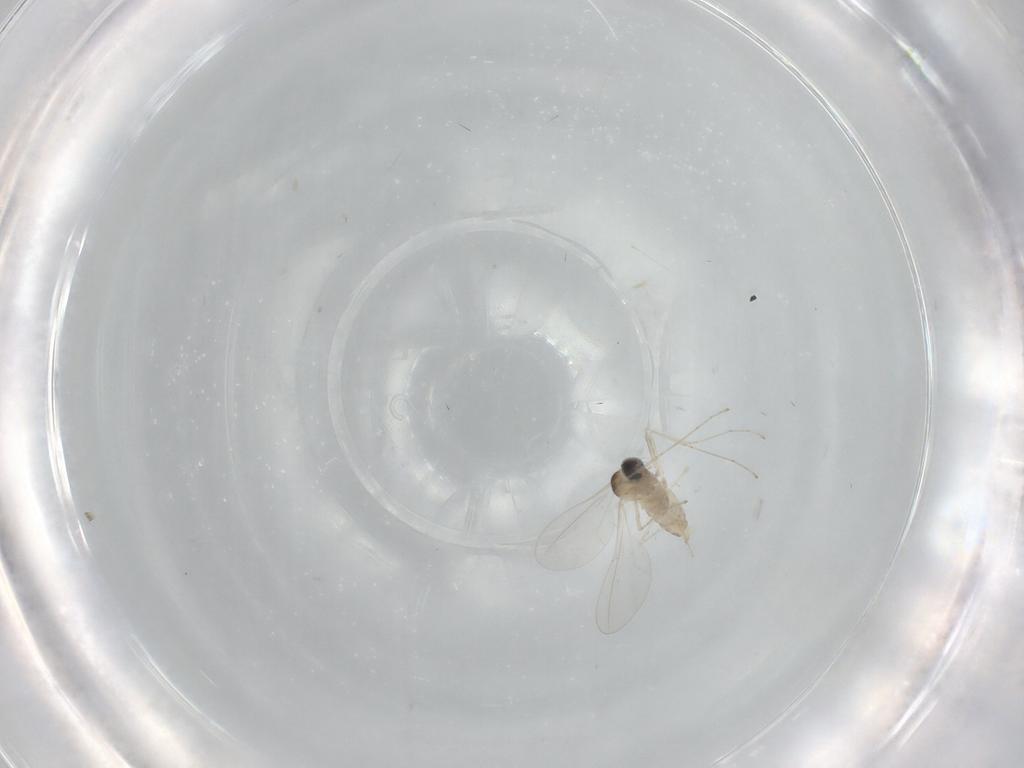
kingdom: Animalia
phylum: Arthropoda
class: Insecta
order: Diptera
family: Cecidomyiidae
